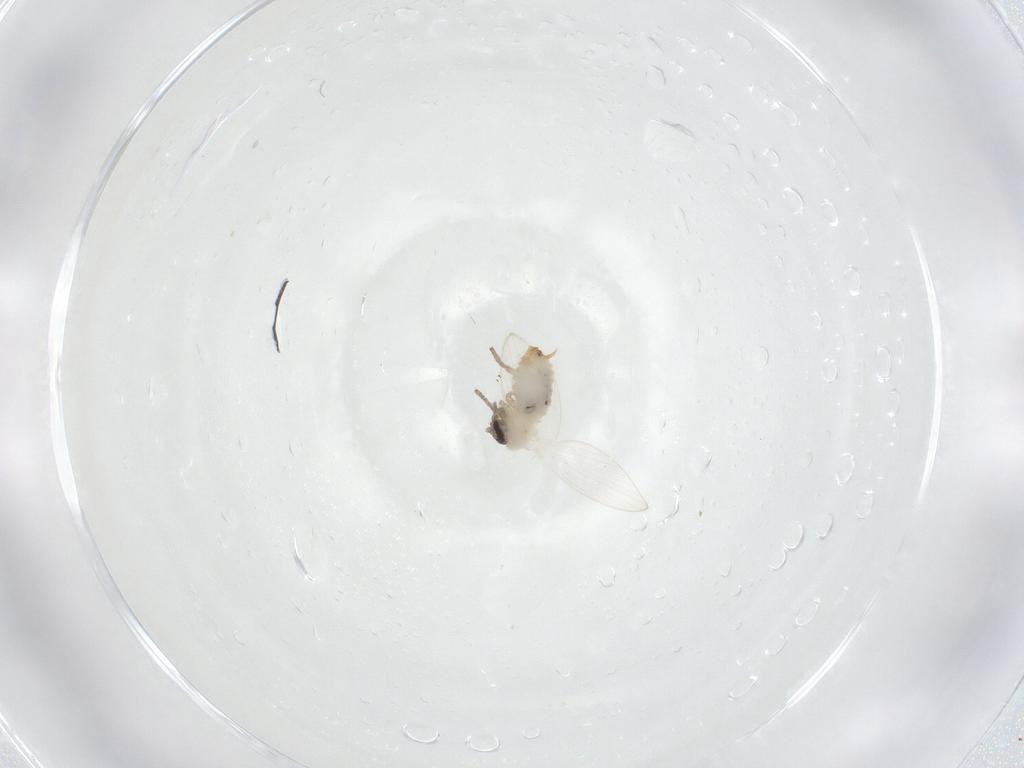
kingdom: Animalia
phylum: Arthropoda
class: Insecta
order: Diptera
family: Psychodidae
